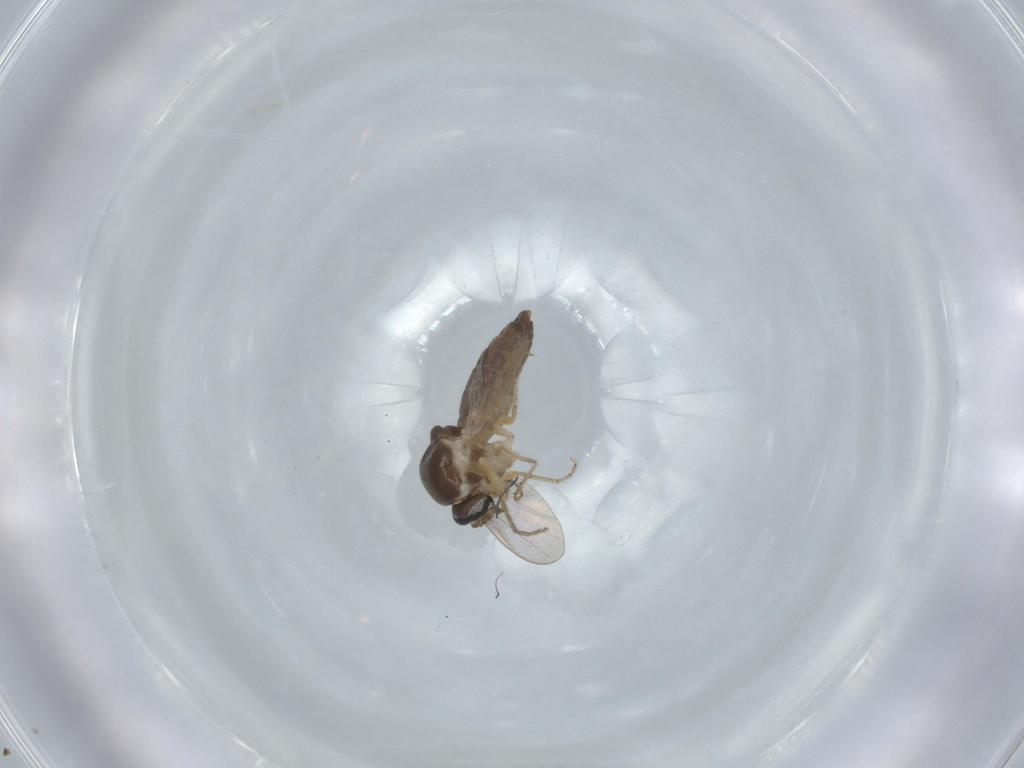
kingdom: Animalia
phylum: Arthropoda
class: Insecta
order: Diptera
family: Ceratopogonidae
